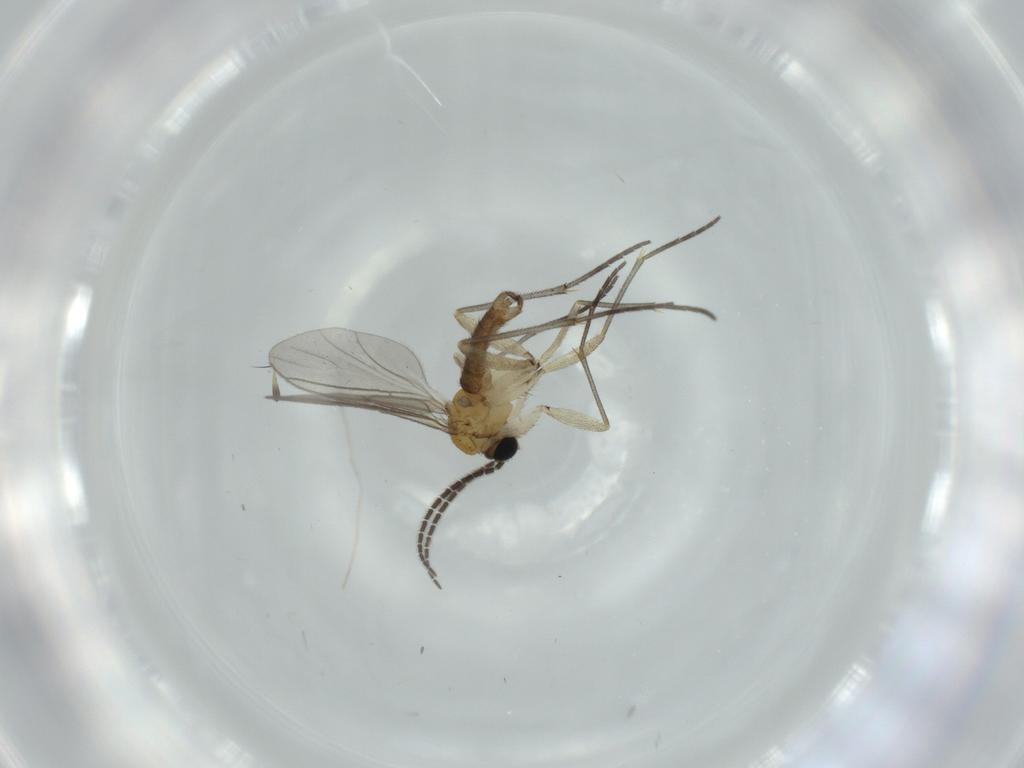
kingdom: Animalia
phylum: Arthropoda
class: Insecta
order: Diptera
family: Sciaridae
